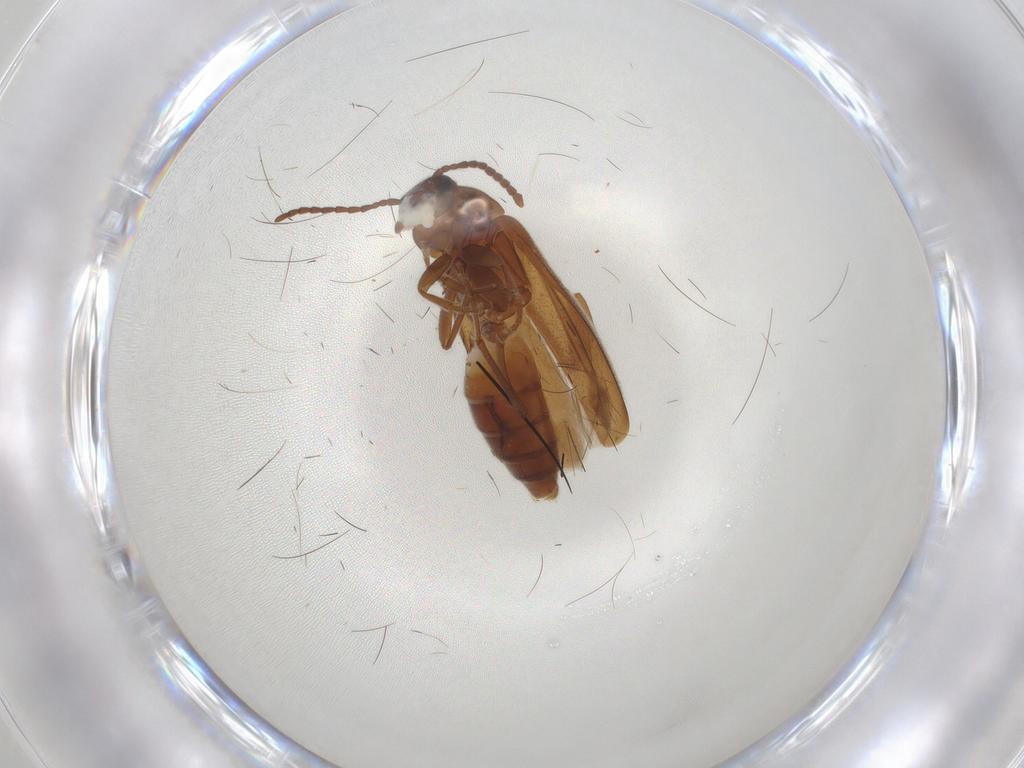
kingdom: Animalia
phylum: Arthropoda
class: Insecta
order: Coleoptera
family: Scraptiidae
